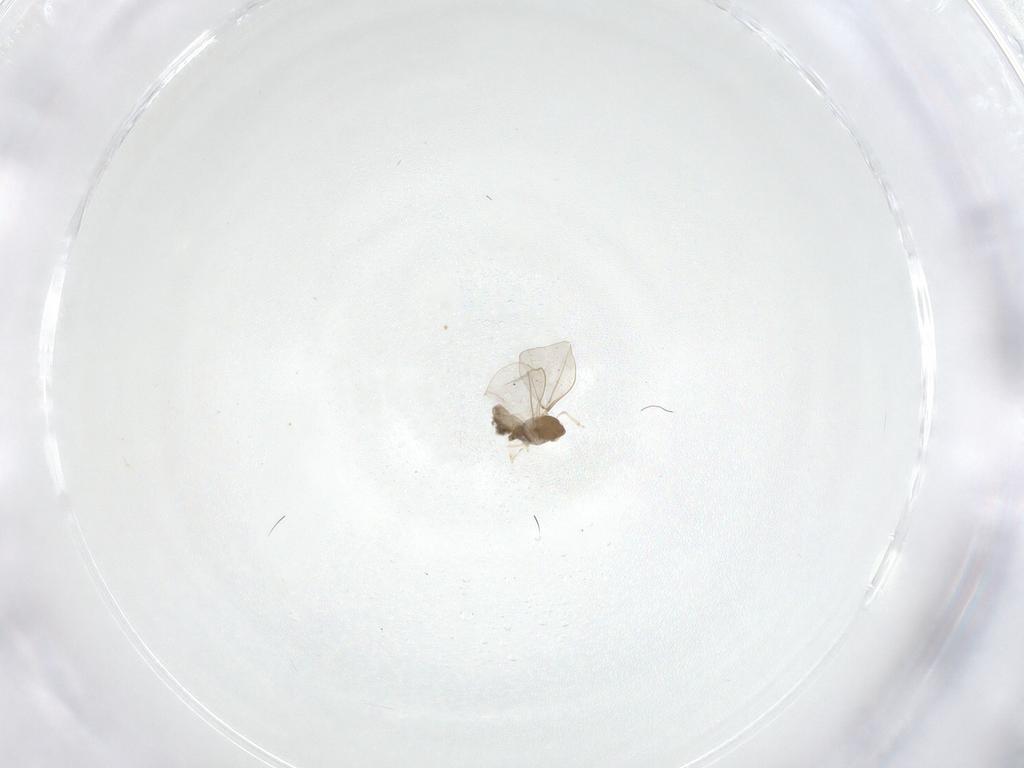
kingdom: Animalia
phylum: Arthropoda
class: Insecta
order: Diptera
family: Cecidomyiidae
